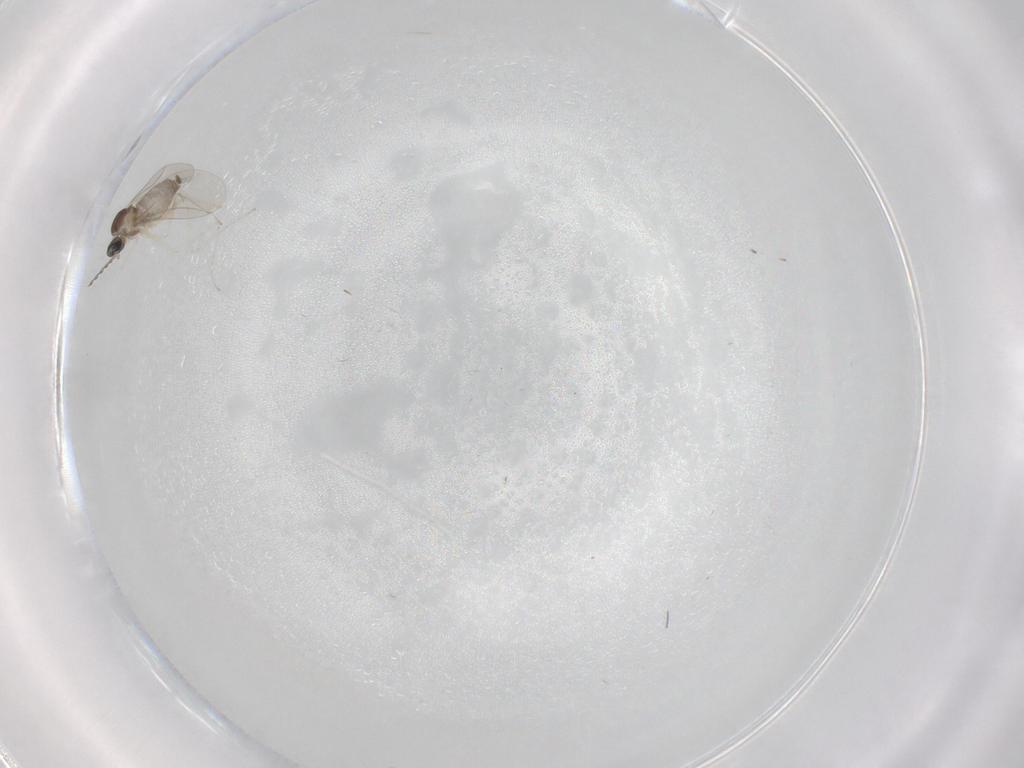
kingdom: Animalia
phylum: Arthropoda
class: Insecta
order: Diptera
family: Cecidomyiidae
